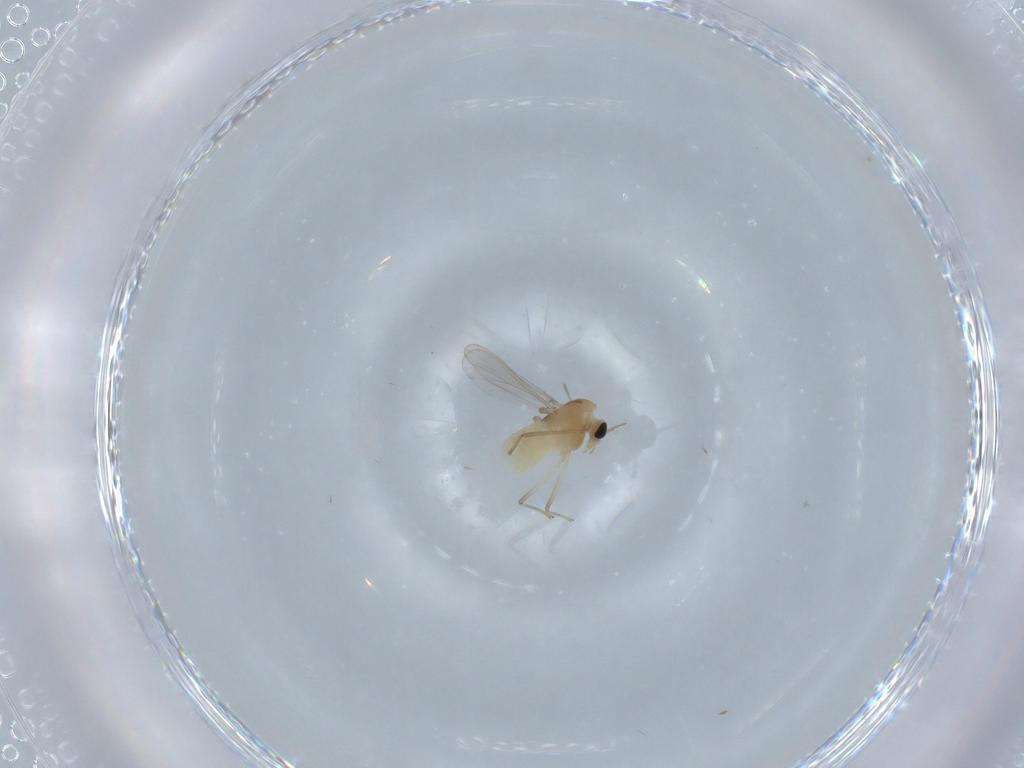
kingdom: Animalia
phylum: Arthropoda
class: Insecta
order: Diptera
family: Chironomidae
